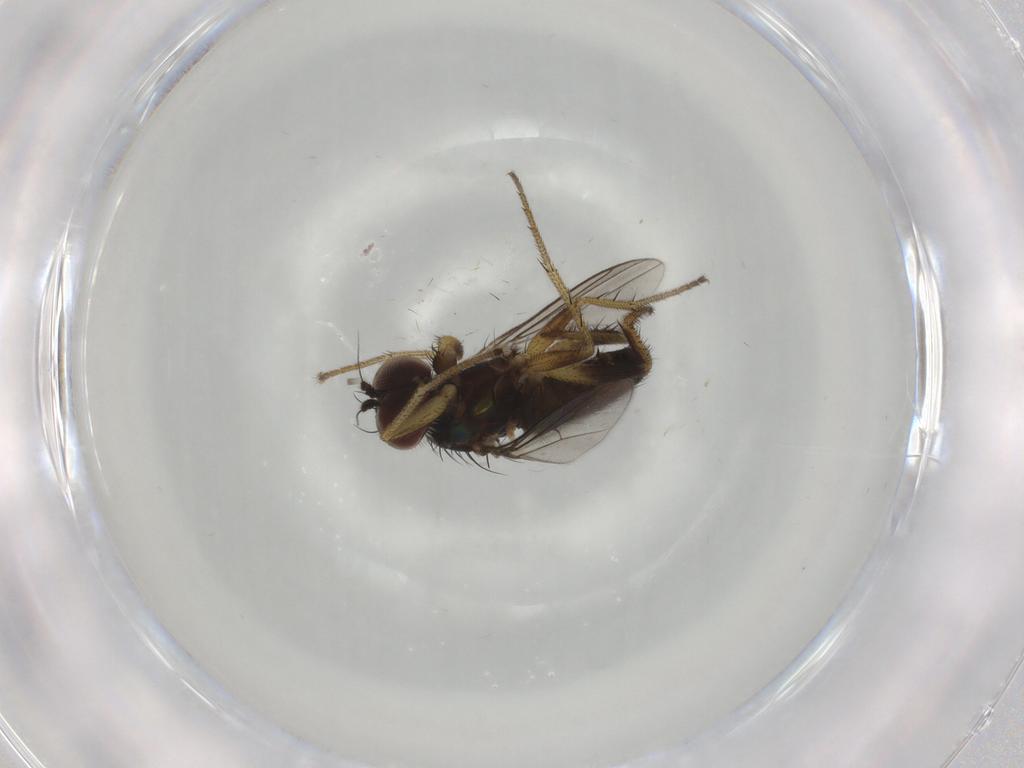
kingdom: Animalia
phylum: Arthropoda
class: Insecta
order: Diptera
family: Dolichopodidae
